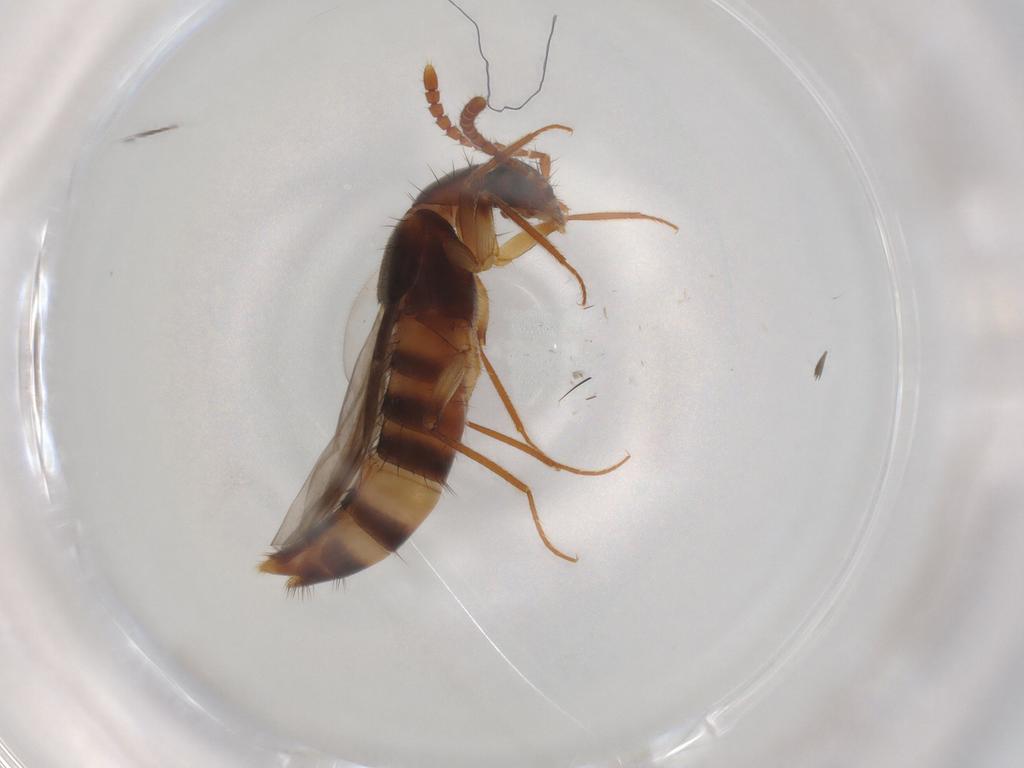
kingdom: Animalia
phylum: Arthropoda
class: Insecta
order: Coleoptera
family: Staphylinidae
